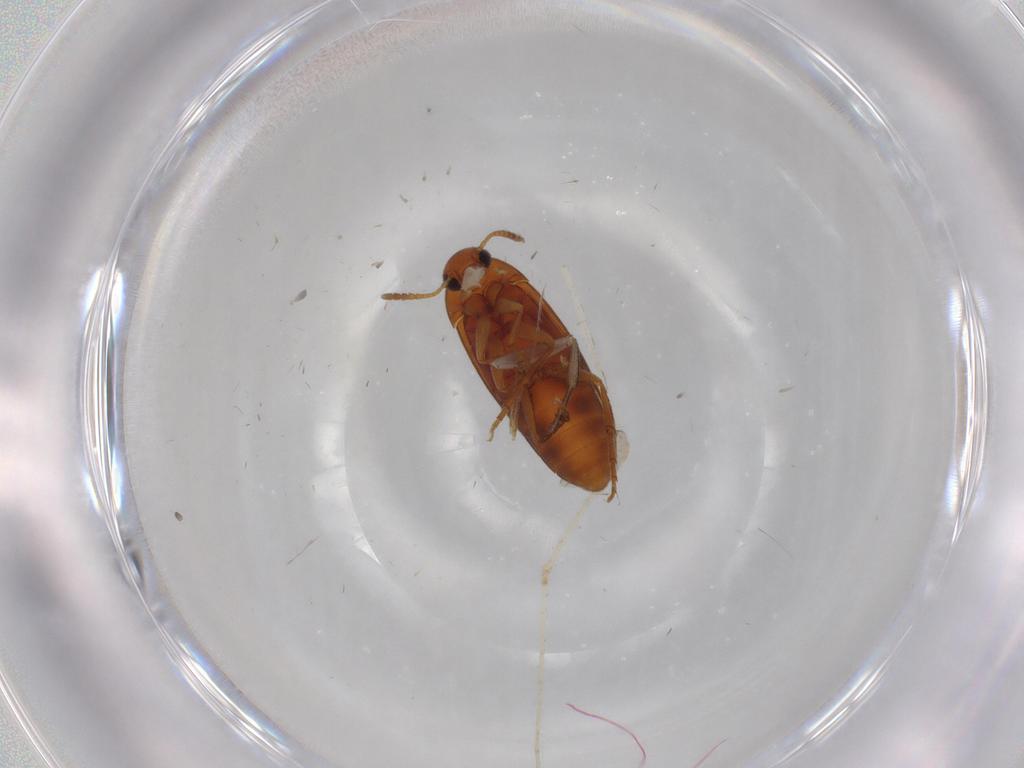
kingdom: Animalia
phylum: Arthropoda
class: Insecta
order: Coleoptera
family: Scraptiidae
